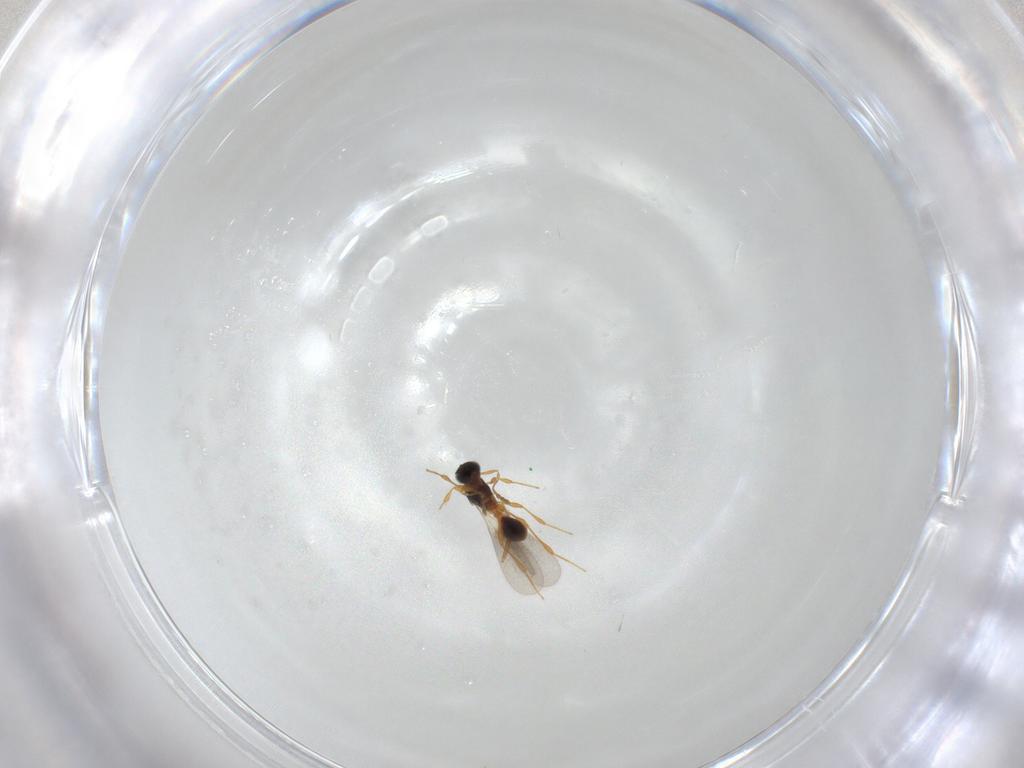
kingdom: Animalia
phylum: Arthropoda
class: Insecta
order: Hymenoptera
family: Platygastridae
